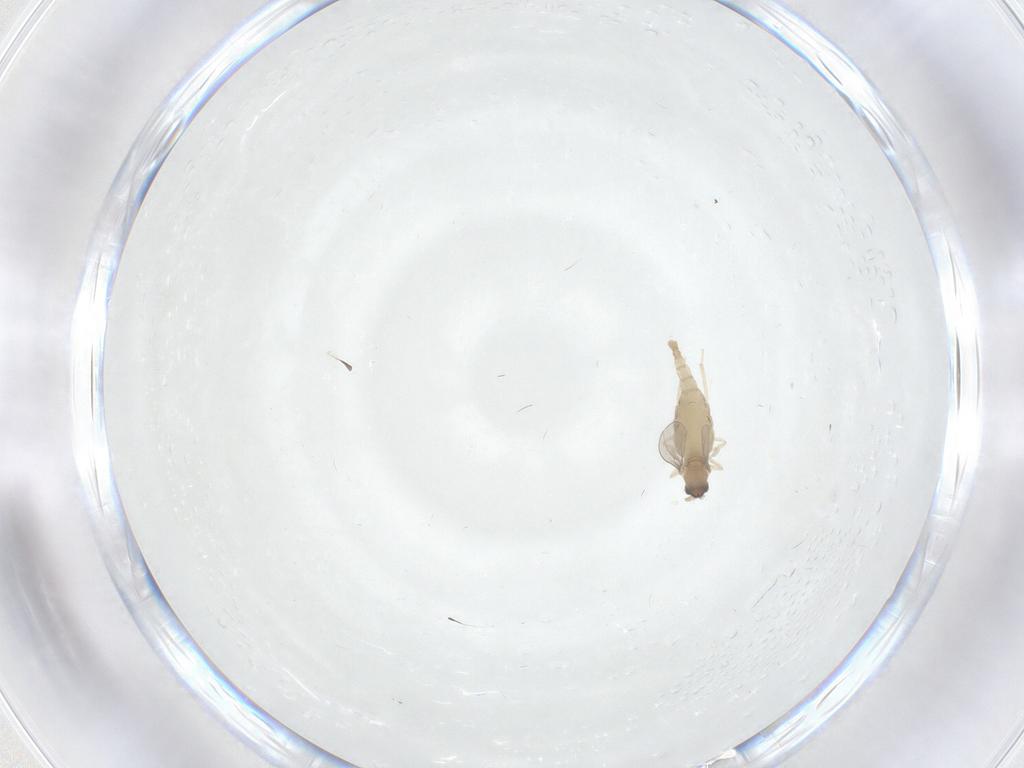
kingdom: Animalia
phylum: Arthropoda
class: Insecta
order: Diptera
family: Cecidomyiidae
